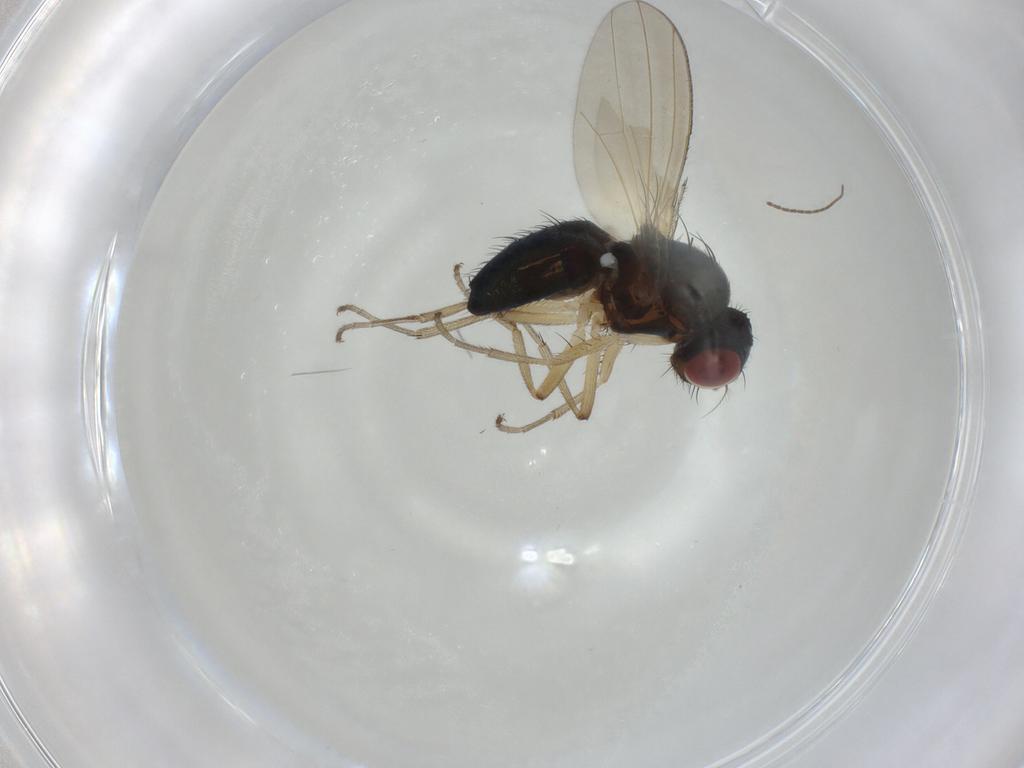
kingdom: Animalia
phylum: Arthropoda
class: Insecta
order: Diptera
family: Camillidae
